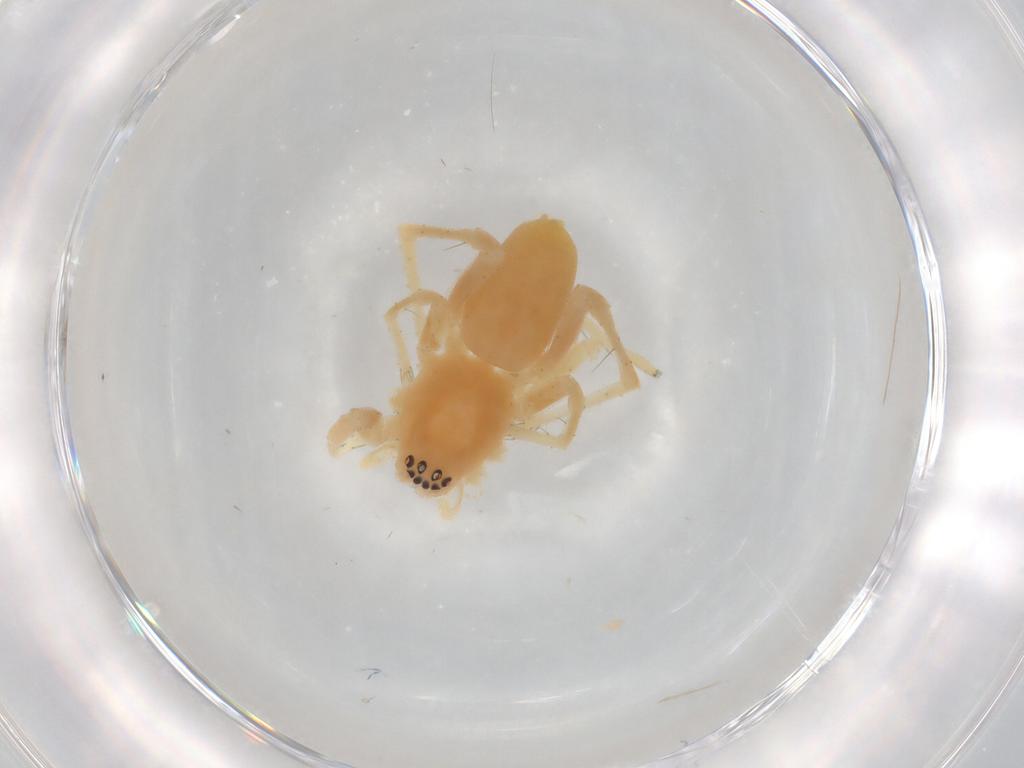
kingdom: Animalia
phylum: Arthropoda
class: Arachnida
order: Araneae
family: Anyphaenidae
